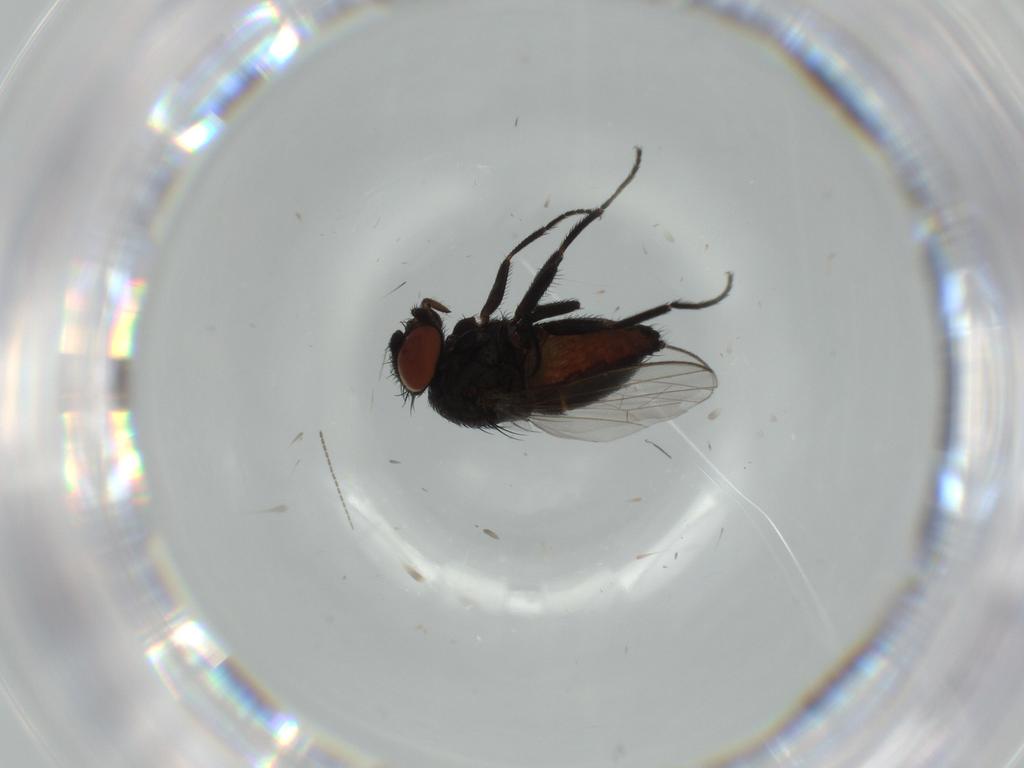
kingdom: Animalia
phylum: Arthropoda
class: Insecta
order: Diptera
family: Milichiidae
